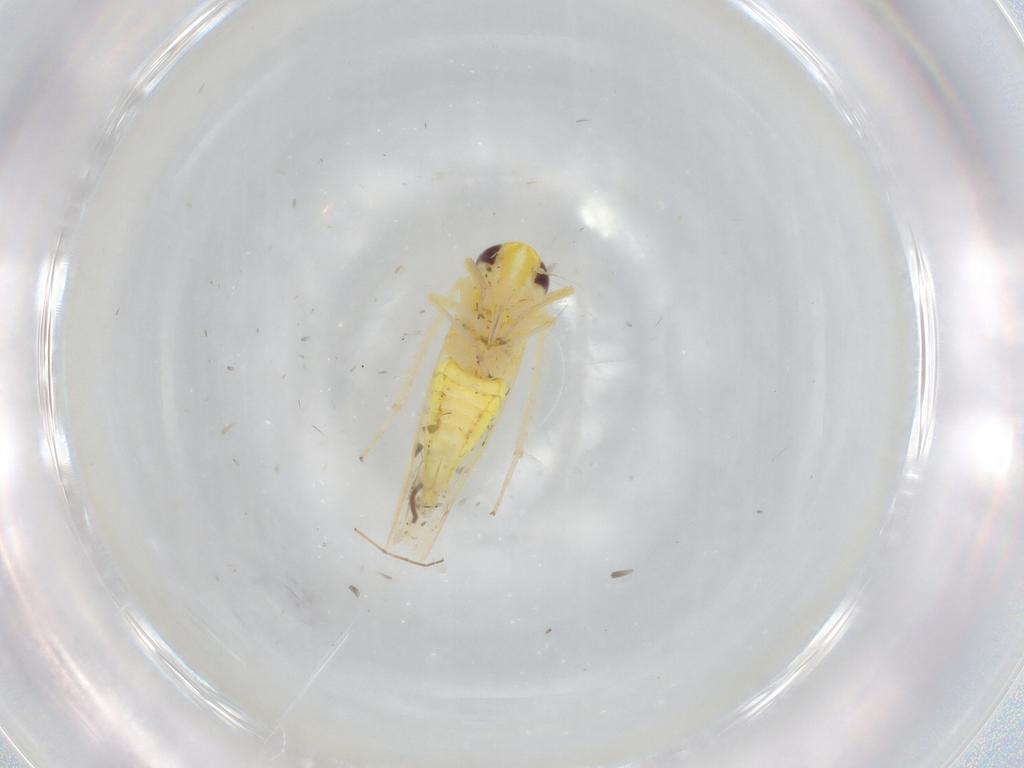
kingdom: Animalia
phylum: Arthropoda
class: Insecta
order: Hemiptera
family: Cicadellidae
